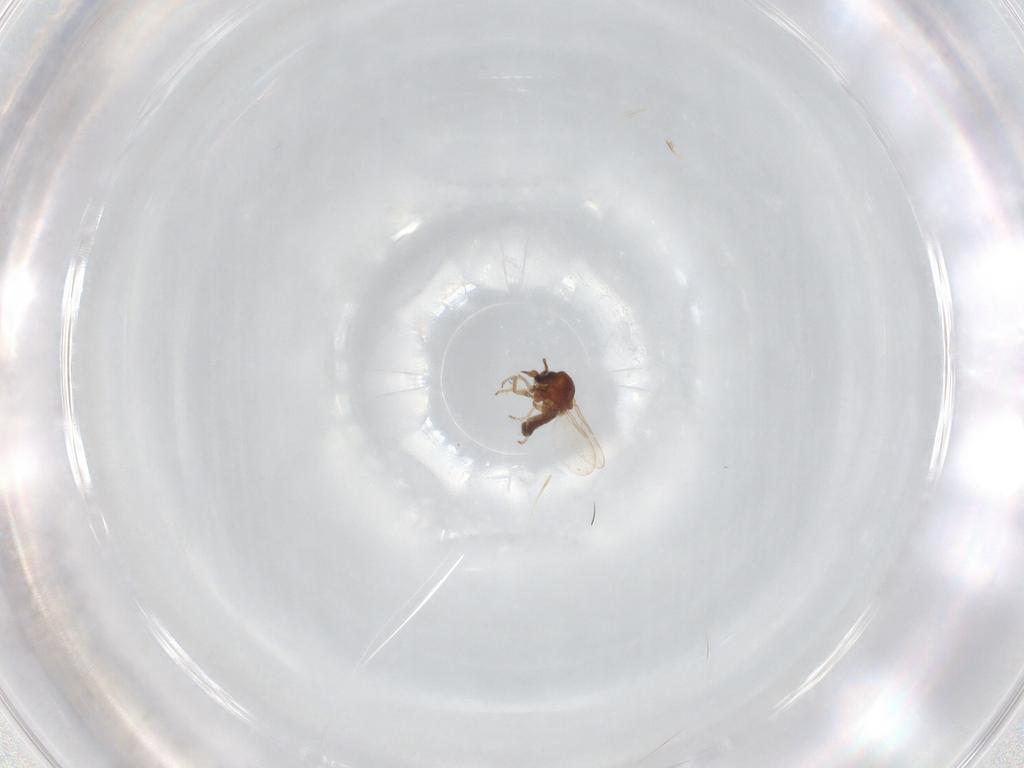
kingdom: Animalia
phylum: Arthropoda
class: Insecta
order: Diptera
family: Ceratopogonidae
